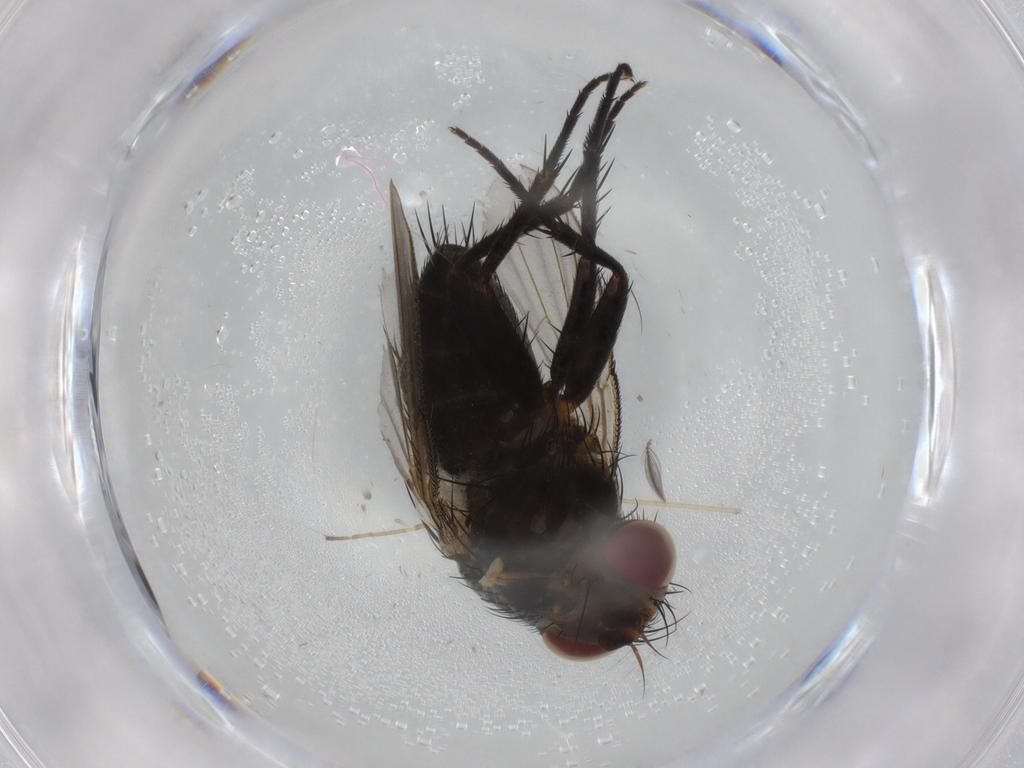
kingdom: Animalia
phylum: Arthropoda
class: Insecta
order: Diptera
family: Tachinidae
